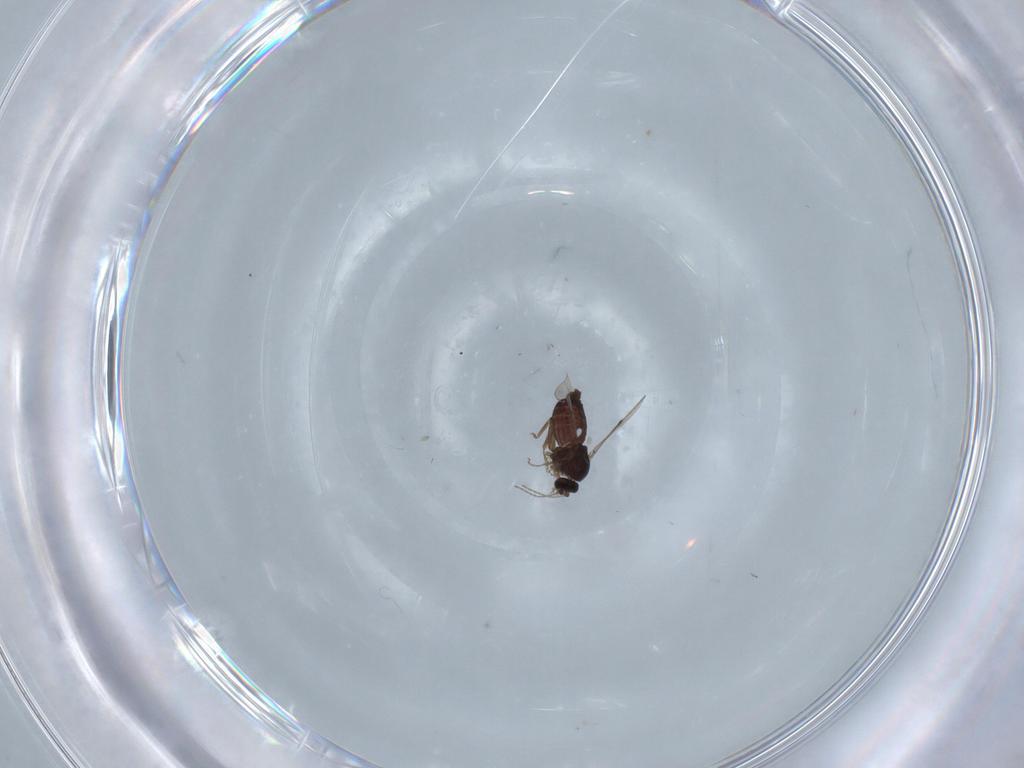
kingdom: Animalia
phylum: Arthropoda
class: Insecta
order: Diptera
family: Ceratopogonidae
